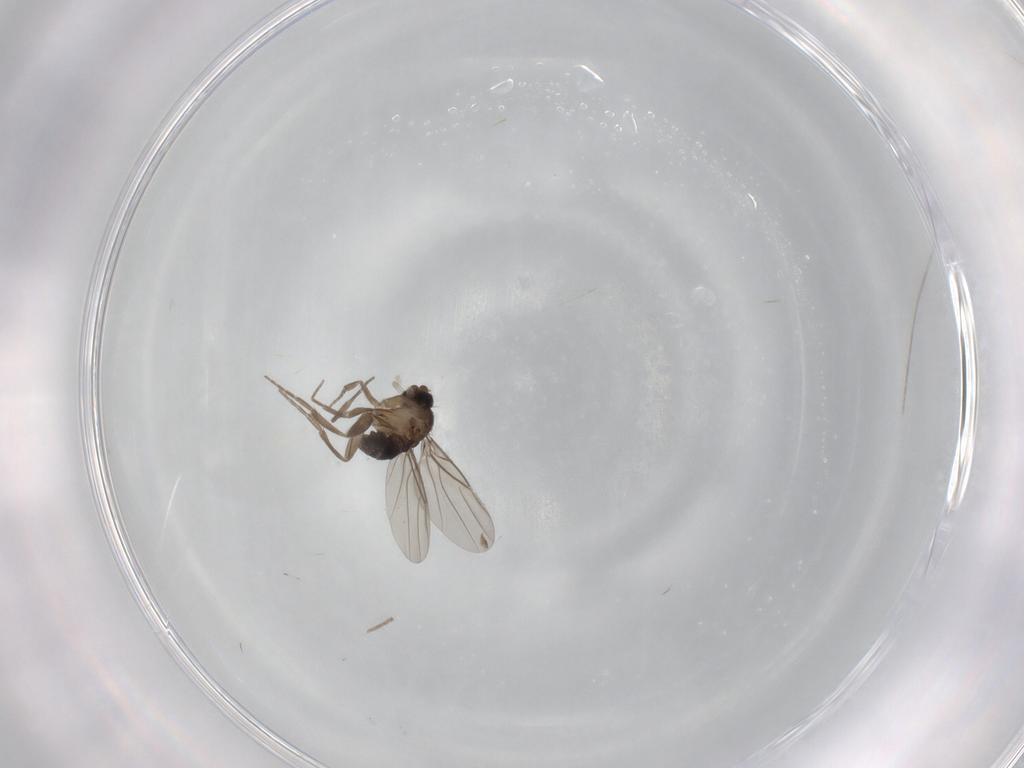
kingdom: Animalia
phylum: Arthropoda
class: Insecta
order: Diptera
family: Phoridae
